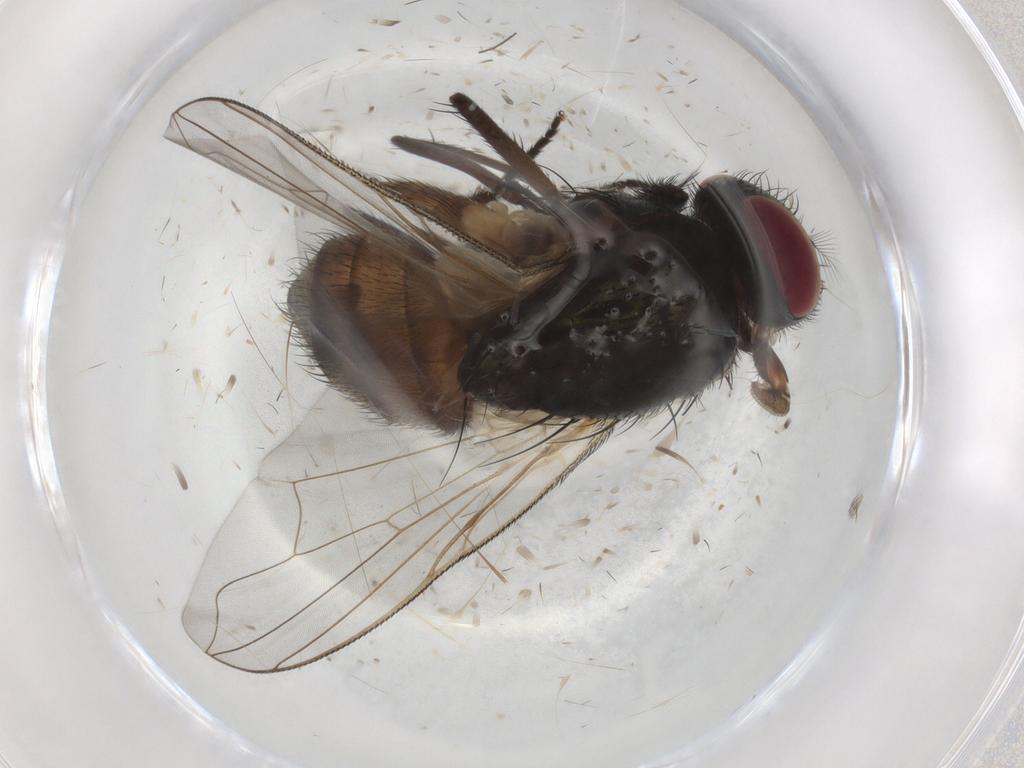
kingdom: Animalia
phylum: Arthropoda
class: Insecta
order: Diptera
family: Muscidae
